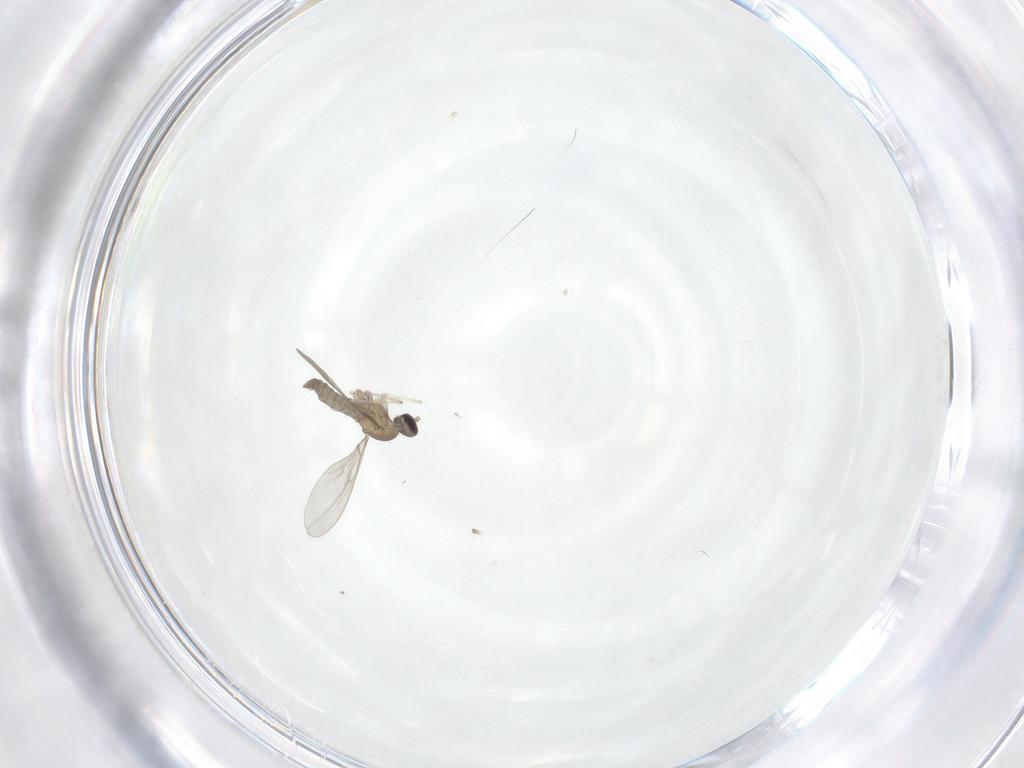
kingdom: Animalia
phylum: Arthropoda
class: Insecta
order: Diptera
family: Cecidomyiidae
